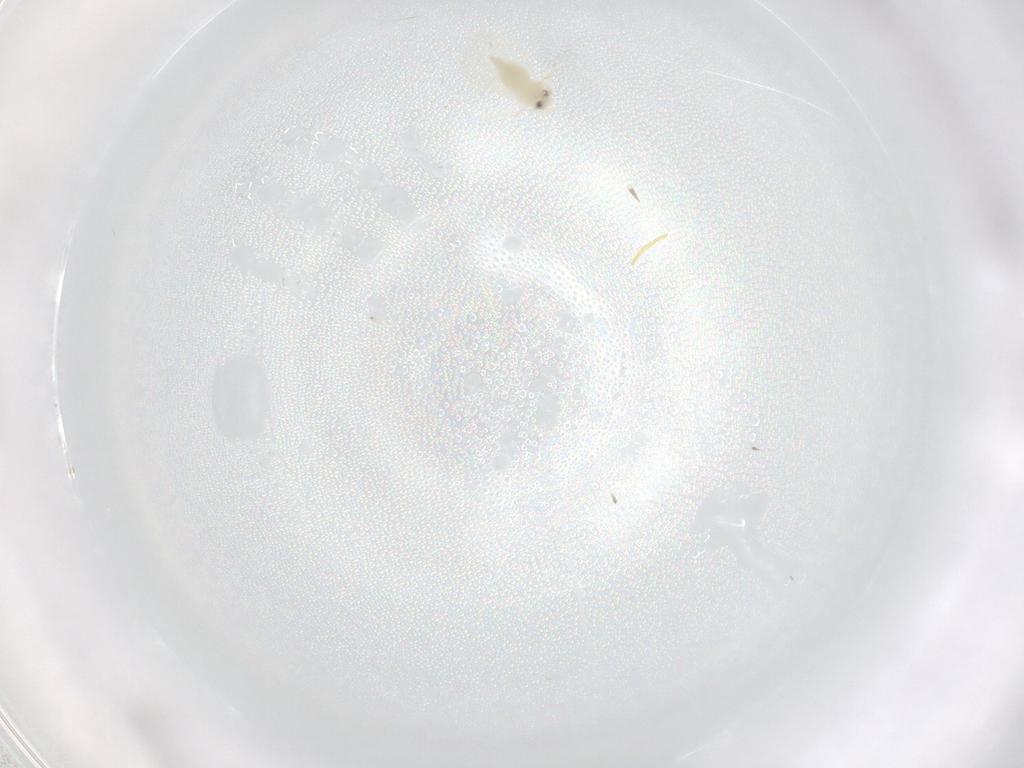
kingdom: Animalia
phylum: Arthropoda
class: Insecta
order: Hemiptera
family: Aleyrodidae
